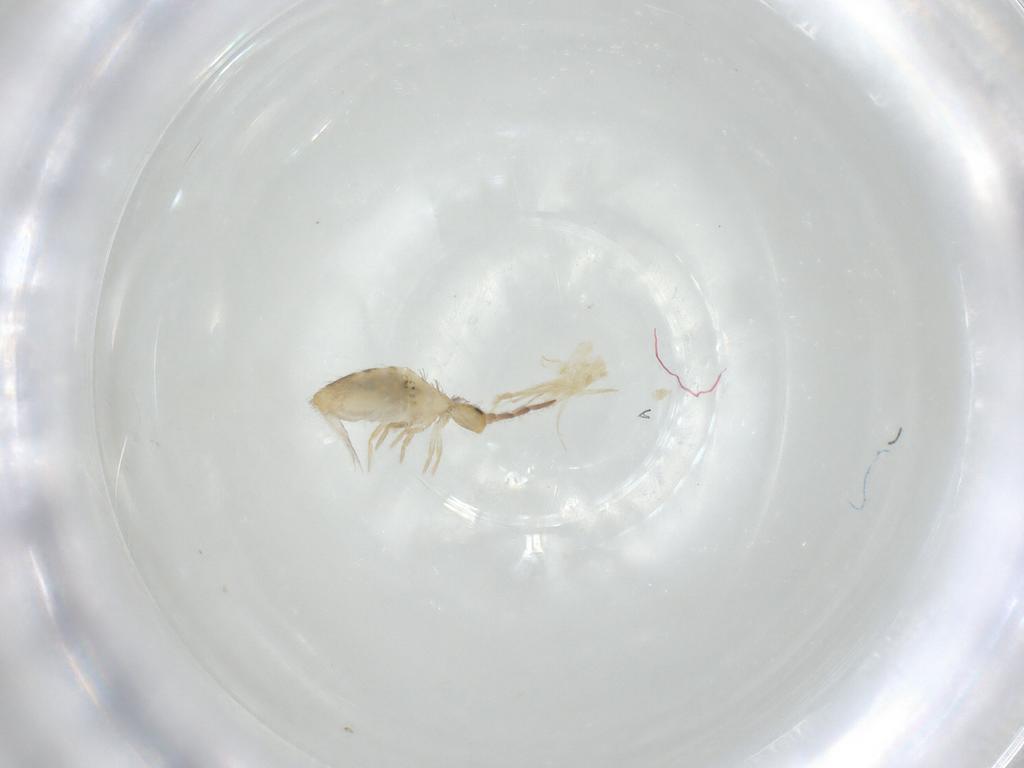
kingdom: Animalia
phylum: Arthropoda
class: Collembola
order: Entomobryomorpha
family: Entomobryidae
